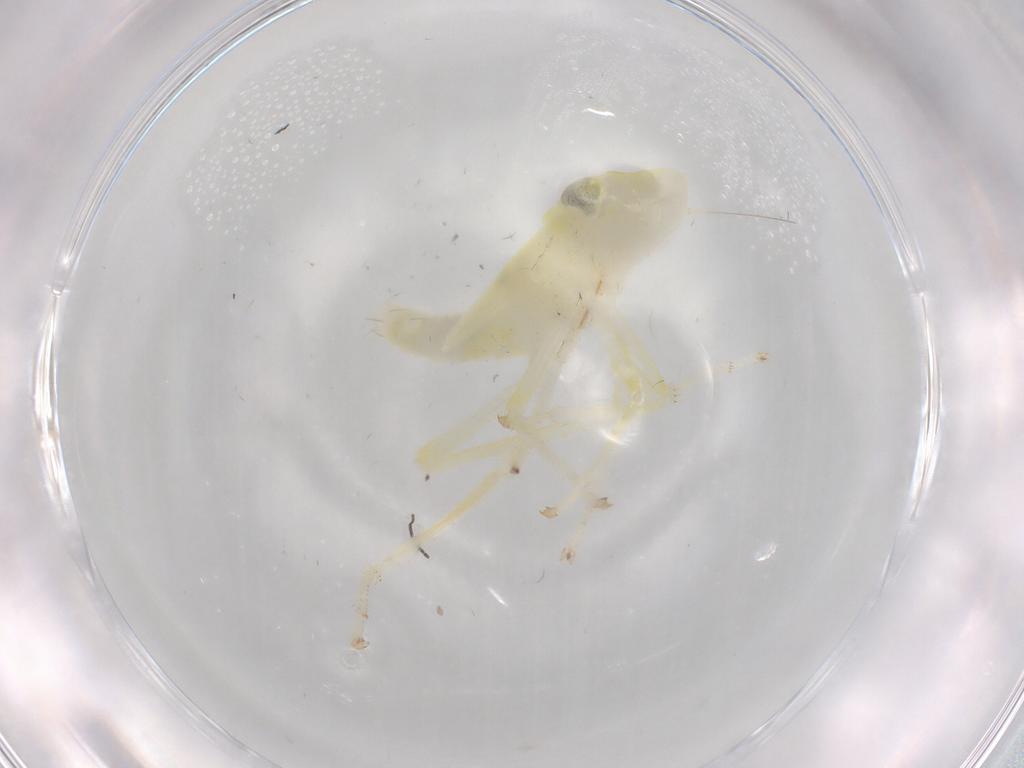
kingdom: Animalia
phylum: Arthropoda
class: Insecta
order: Hemiptera
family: Cicadellidae
